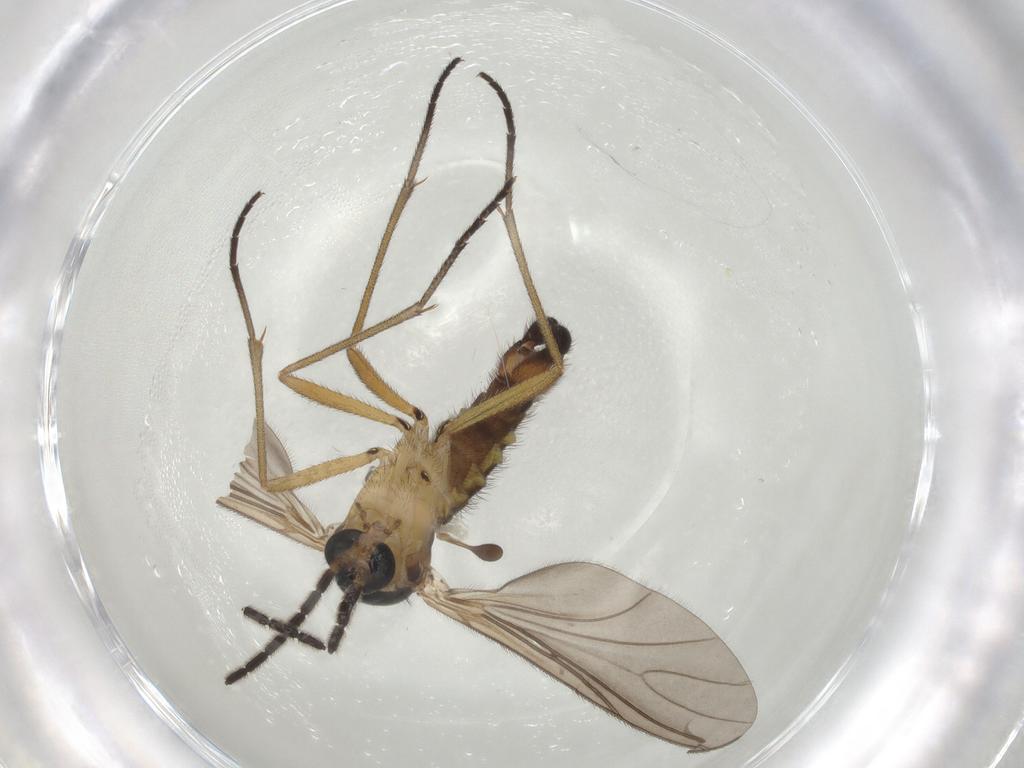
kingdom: Animalia
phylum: Arthropoda
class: Insecta
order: Diptera
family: Sciaridae
